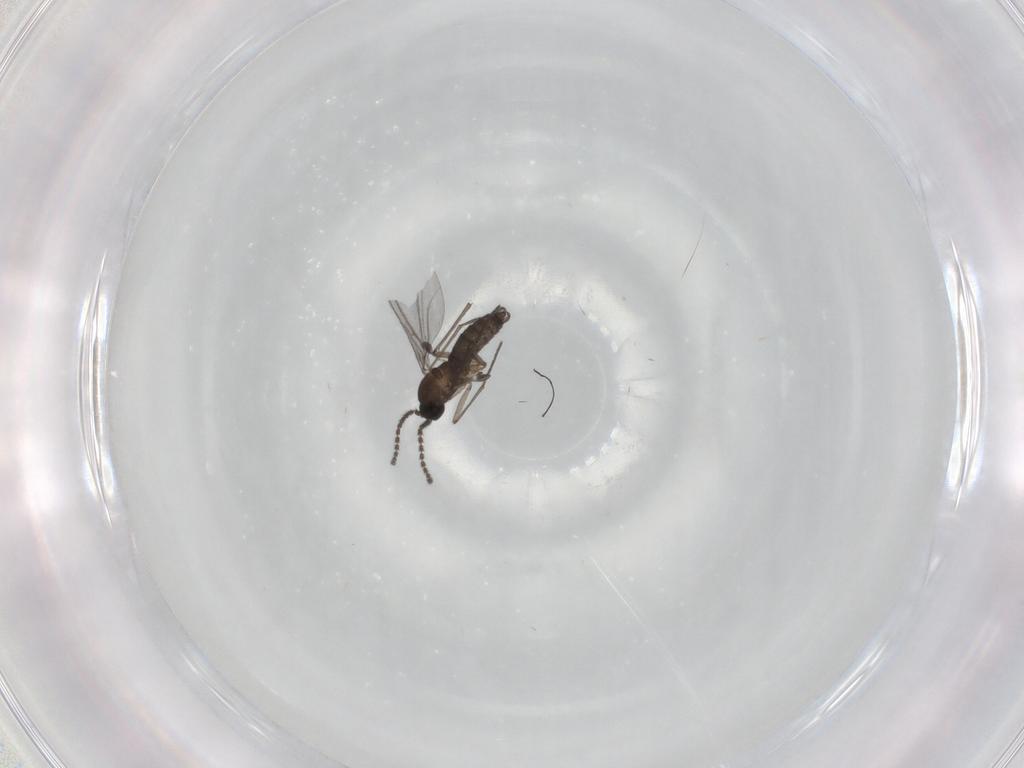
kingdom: Animalia
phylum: Arthropoda
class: Insecta
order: Diptera
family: Sciaridae
